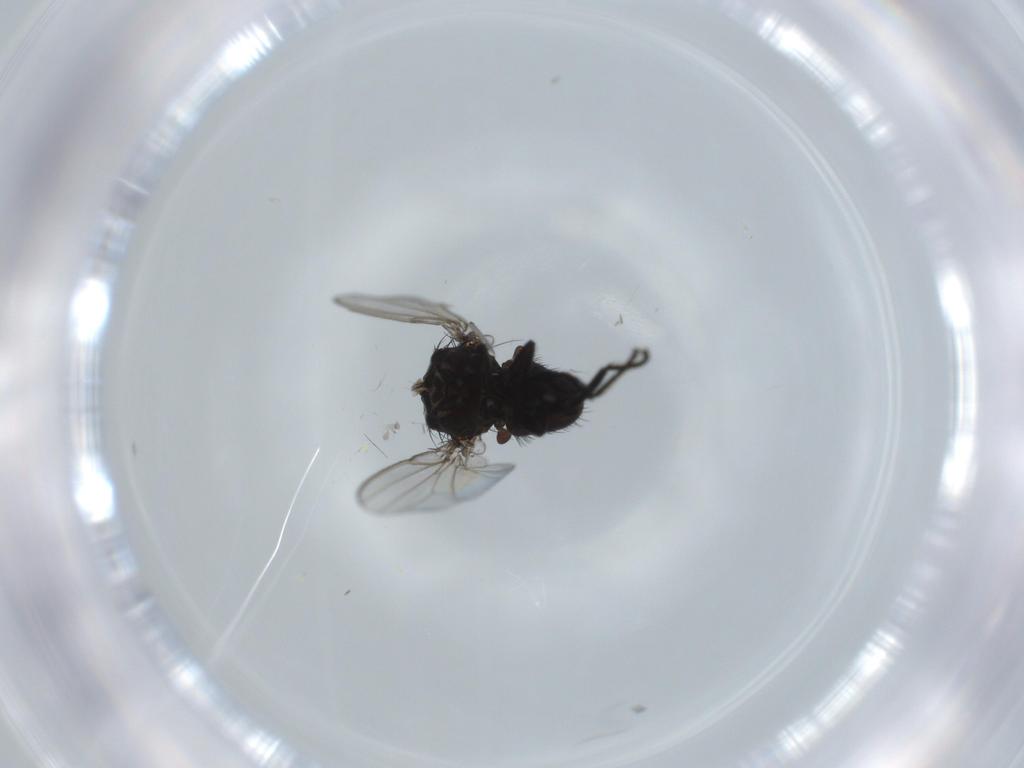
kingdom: Animalia
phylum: Arthropoda
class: Insecta
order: Diptera
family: Milichiidae
